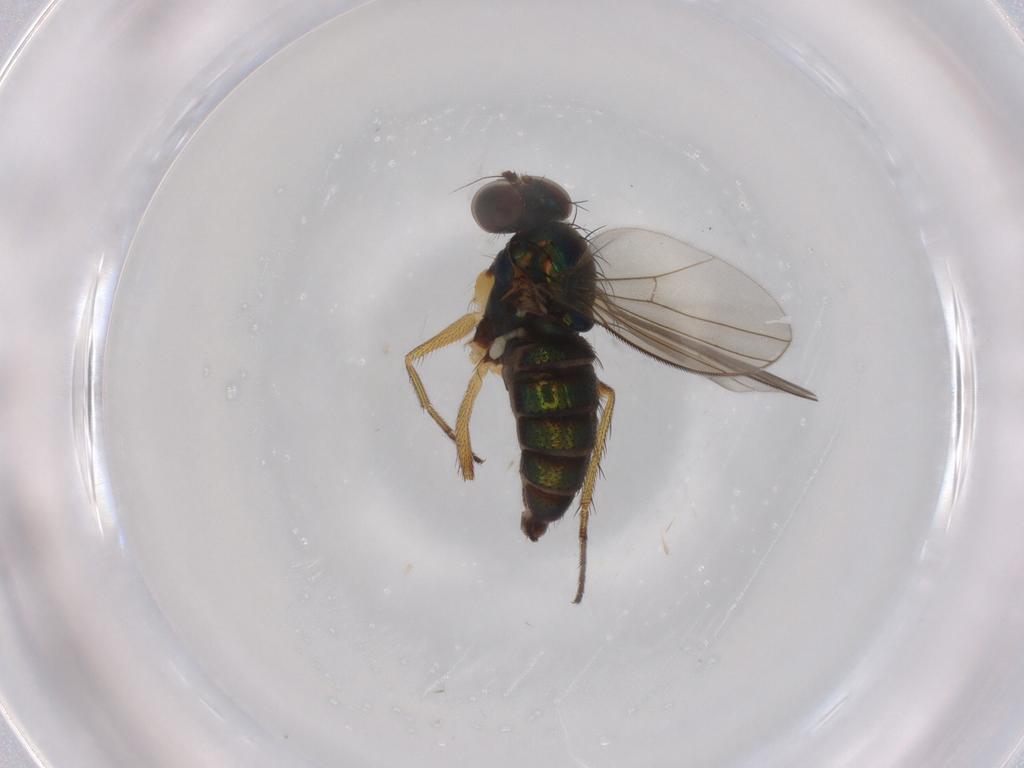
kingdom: Animalia
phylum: Arthropoda
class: Insecta
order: Diptera
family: Dolichopodidae
